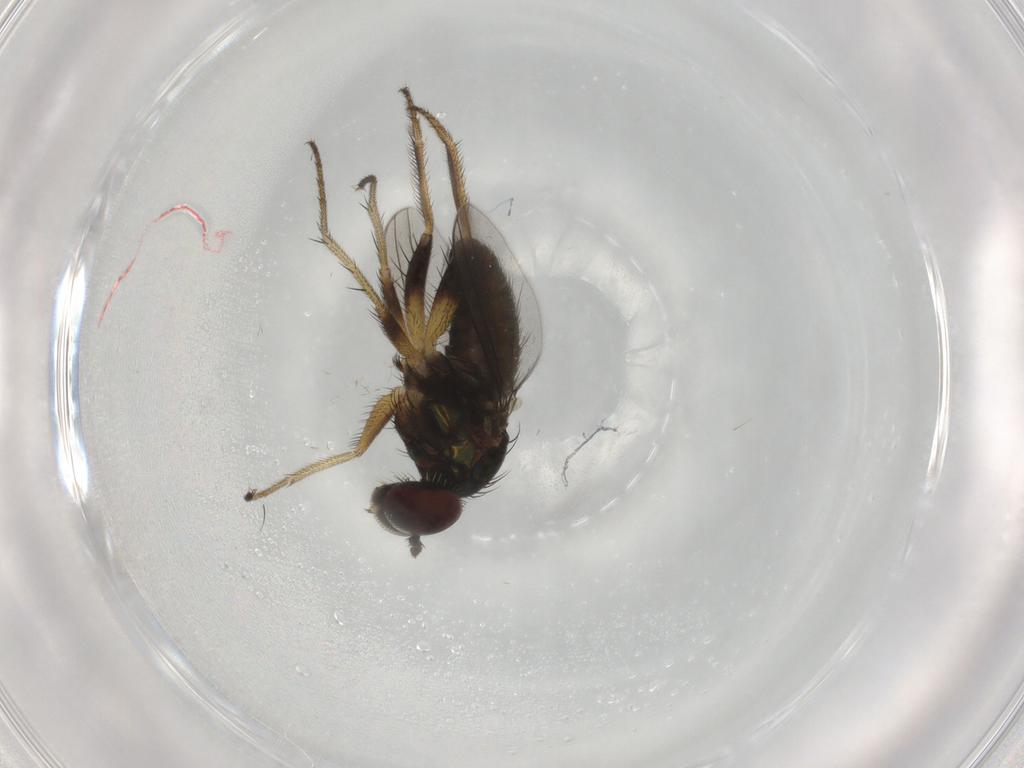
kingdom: Animalia
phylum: Arthropoda
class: Insecta
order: Diptera
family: Dolichopodidae
